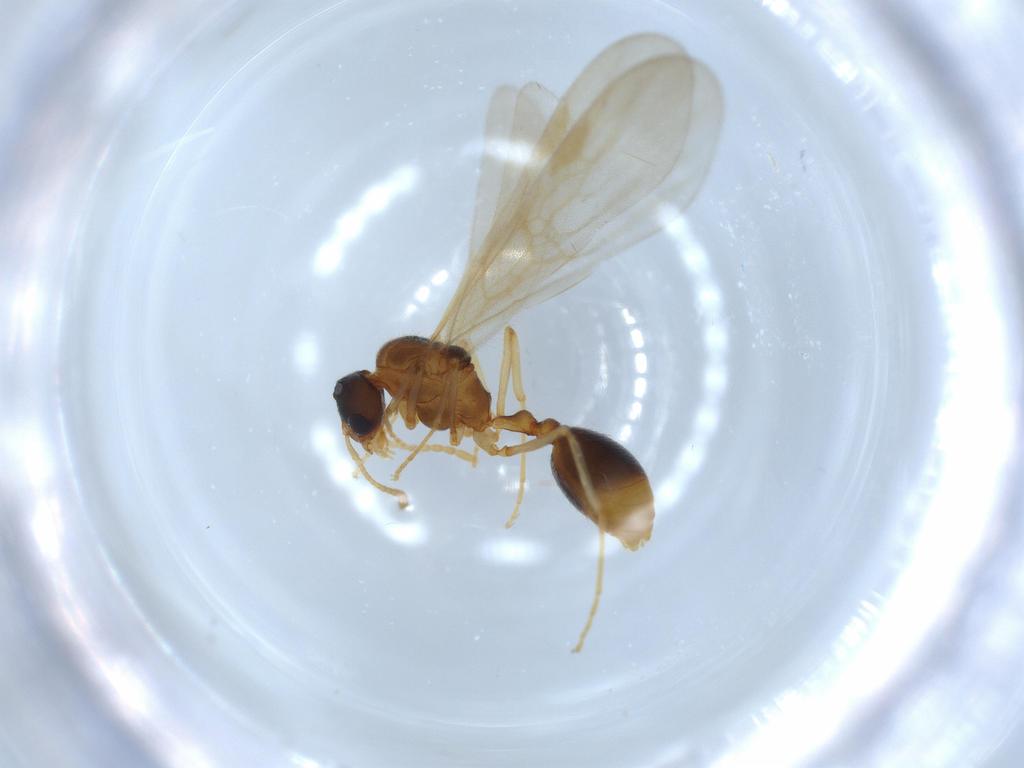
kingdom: Animalia
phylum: Arthropoda
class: Insecta
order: Hymenoptera
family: Formicidae
